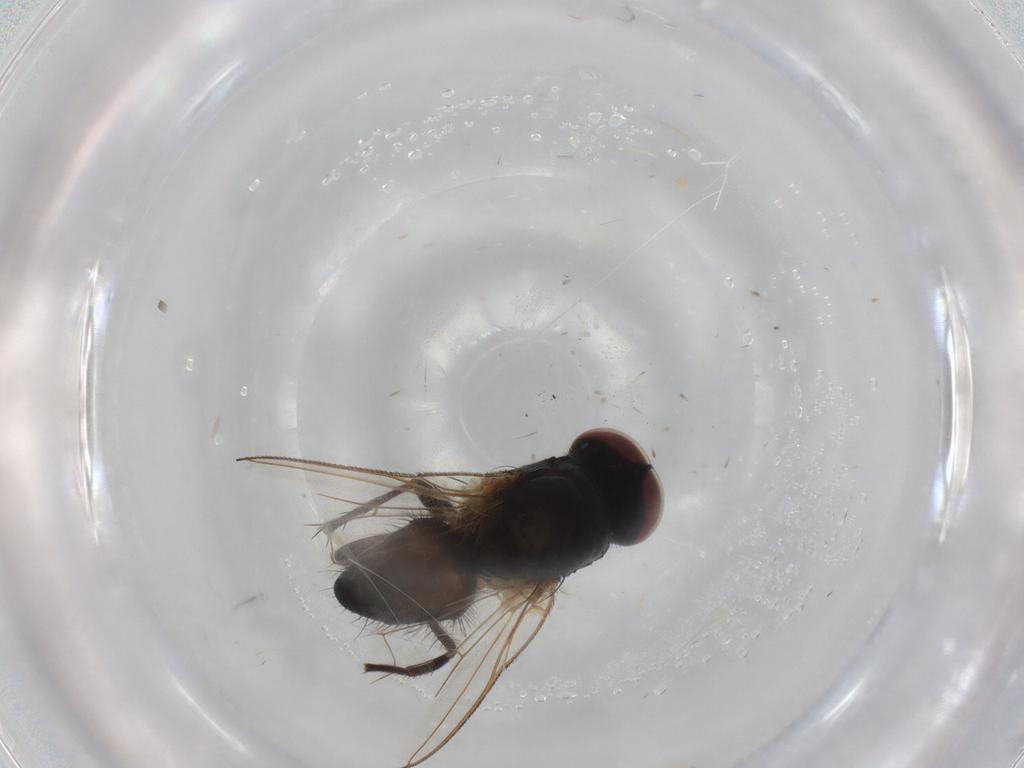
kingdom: Animalia
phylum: Arthropoda
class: Insecta
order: Diptera
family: Muscidae
